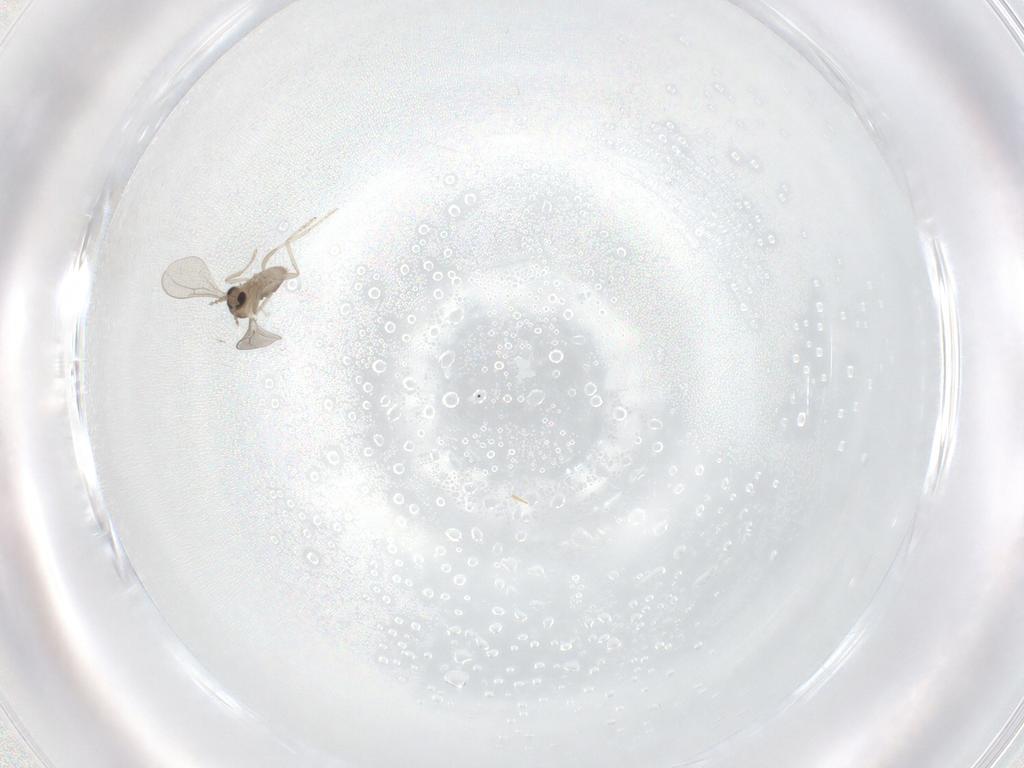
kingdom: Animalia
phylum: Arthropoda
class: Insecta
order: Diptera
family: Cecidomyiidae
